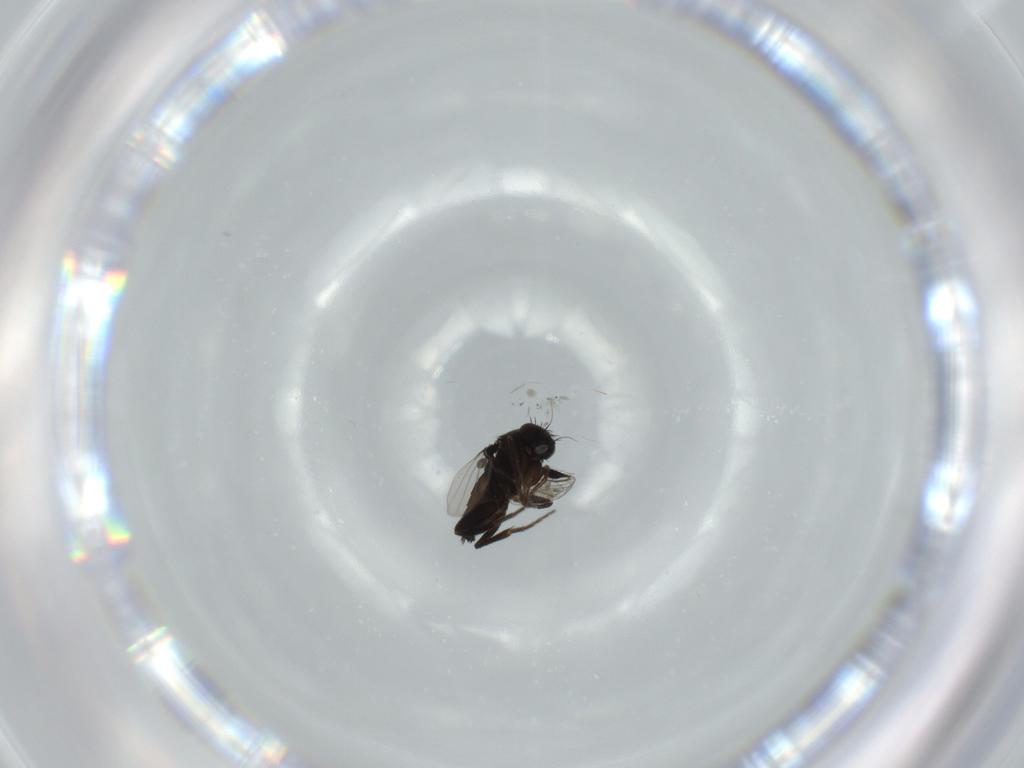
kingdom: Animalia
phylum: Arthropoda
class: Insecta
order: Diptera
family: Phoridae
